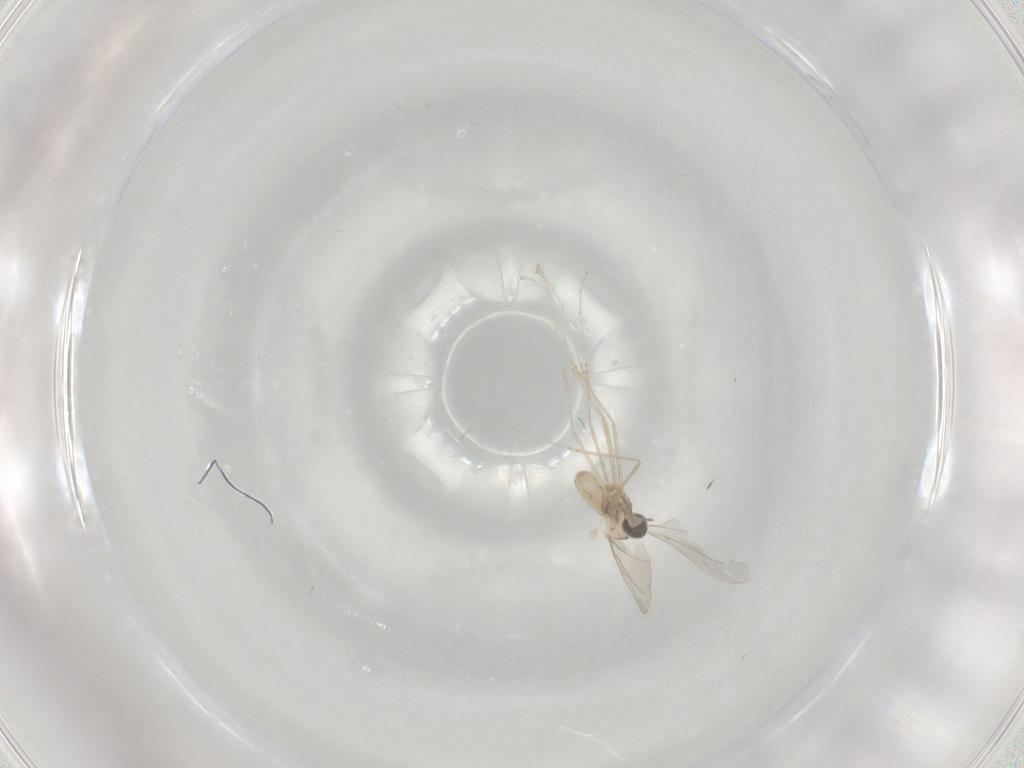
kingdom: Animalia
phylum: Arthropoda
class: Insecta
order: Diptera
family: Cecidomyiidae
